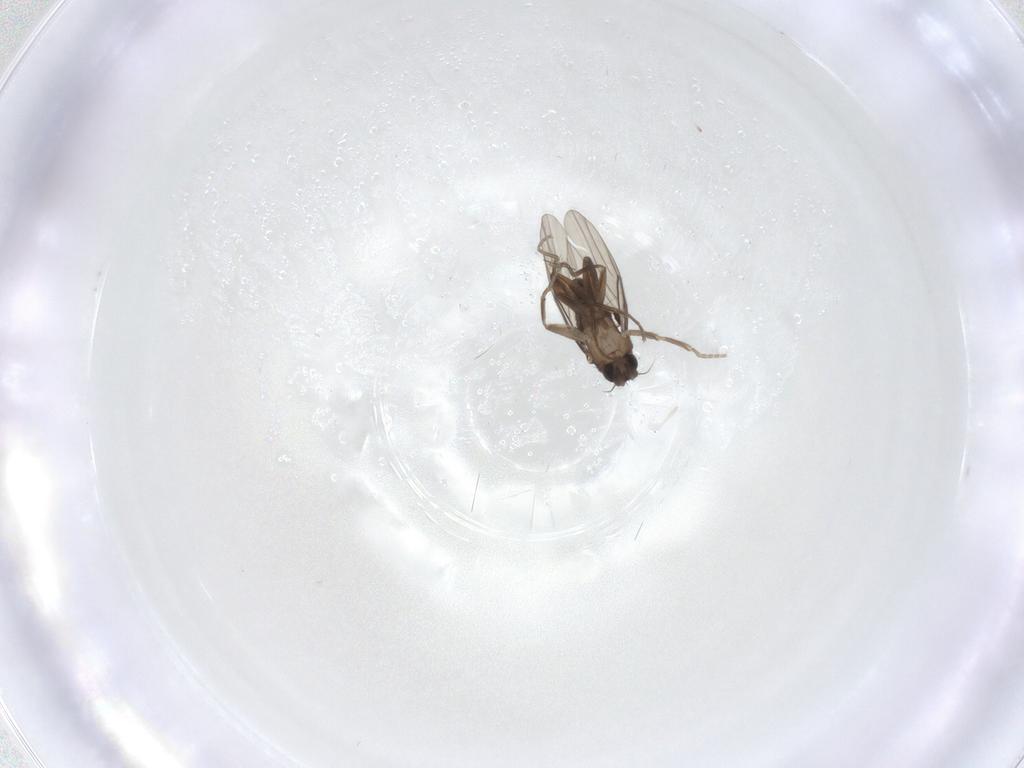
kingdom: Animalia
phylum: Arthropoda
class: Insecta
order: Diptera
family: Phoridae
